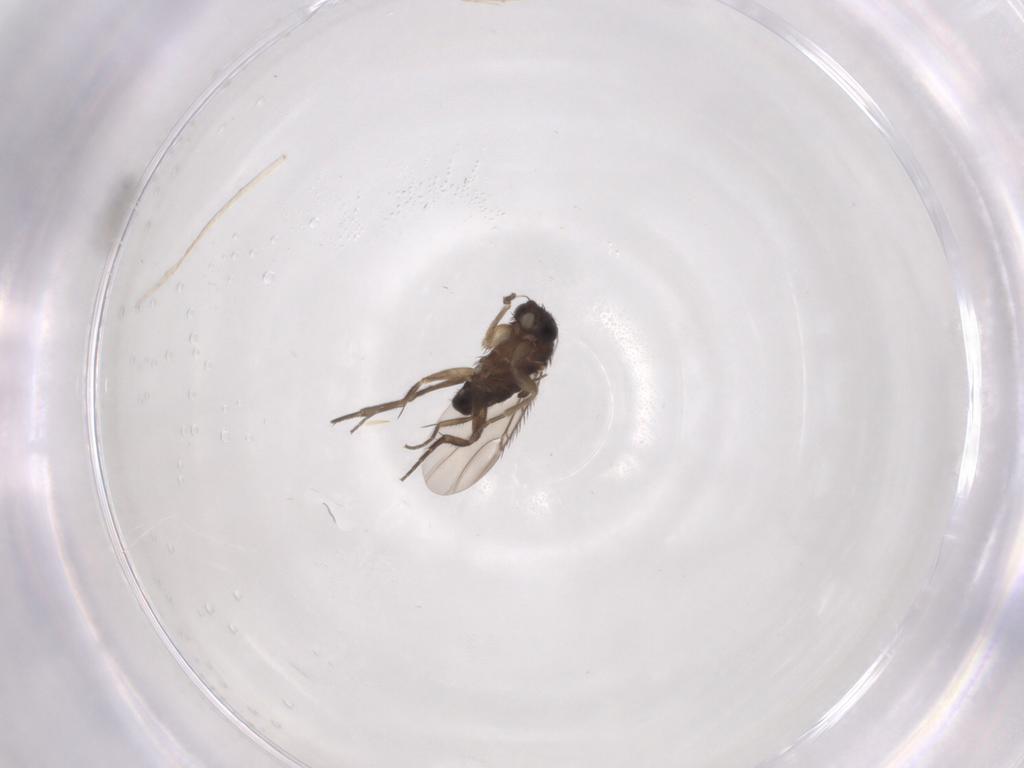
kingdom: Animalia
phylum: Arthropoda
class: Insecta
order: Diptera
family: Phoridae
